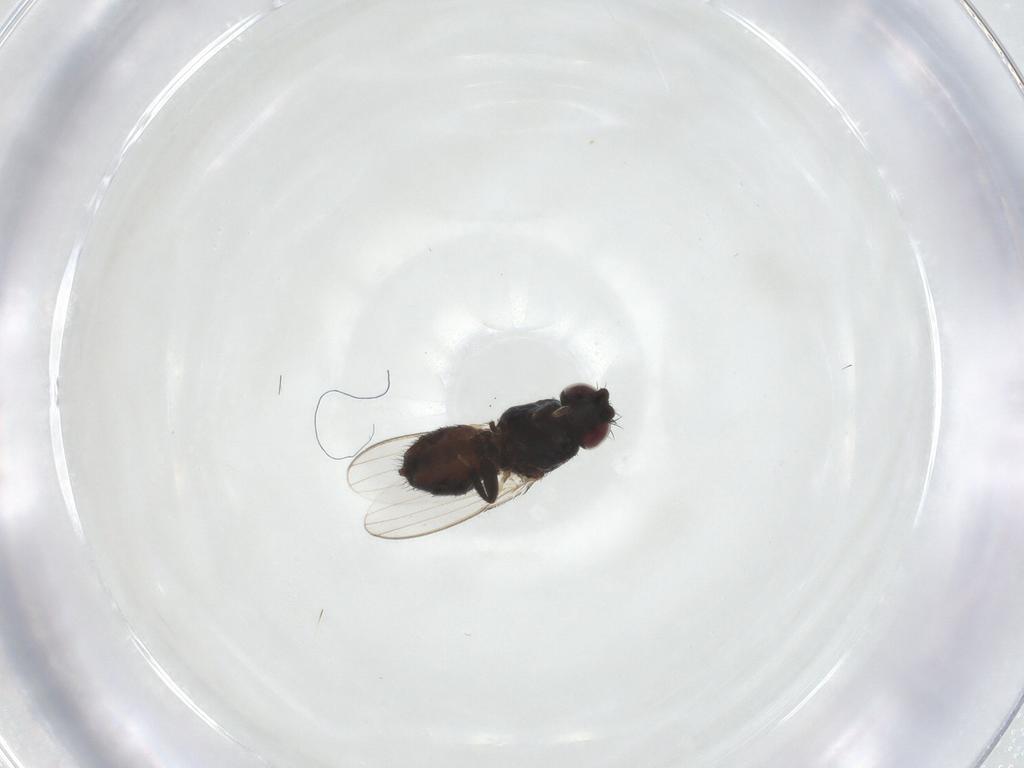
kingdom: Animalia
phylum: Arthropoda
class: Insecta
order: Diptera
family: Milichiidae
